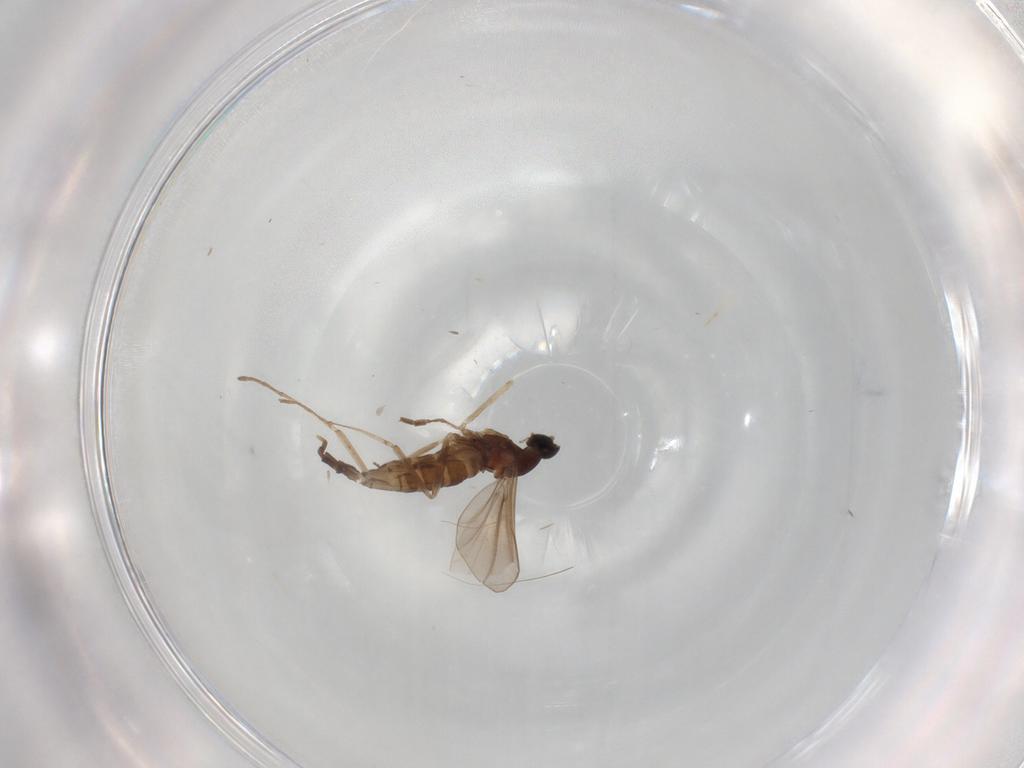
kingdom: Animalia
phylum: Arthropoda
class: Insecta
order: Diptera
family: Cecidomyiidae
